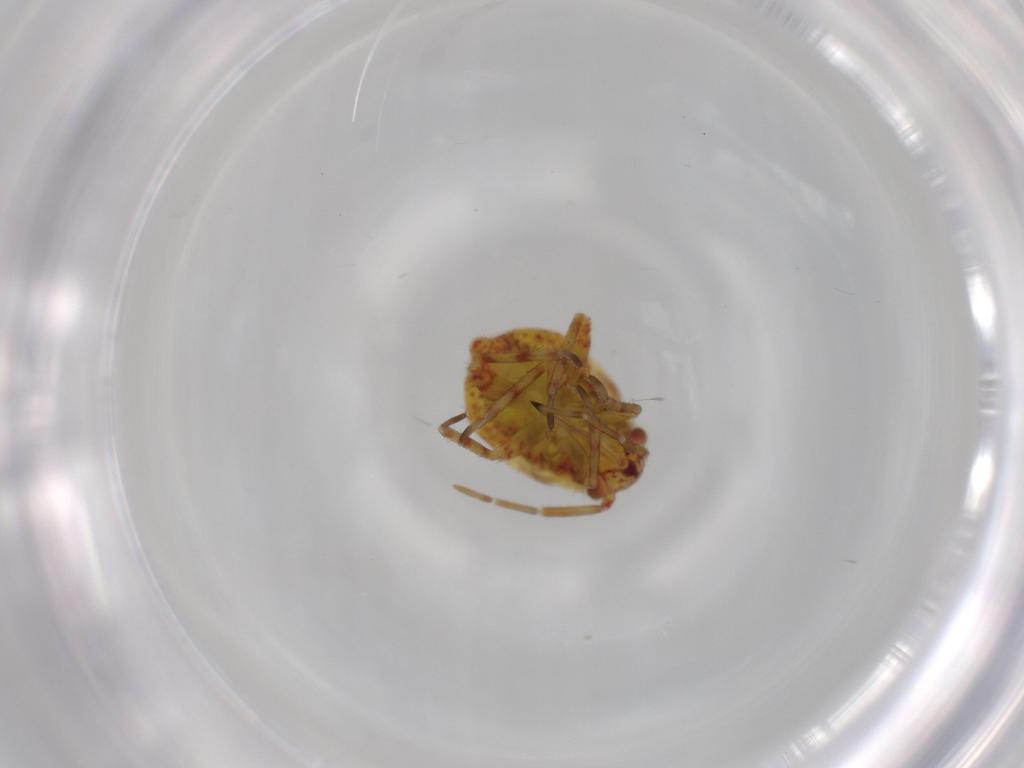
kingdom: Animalia
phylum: Arthropoda
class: Insecta
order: Hemiptera
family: Miridae
